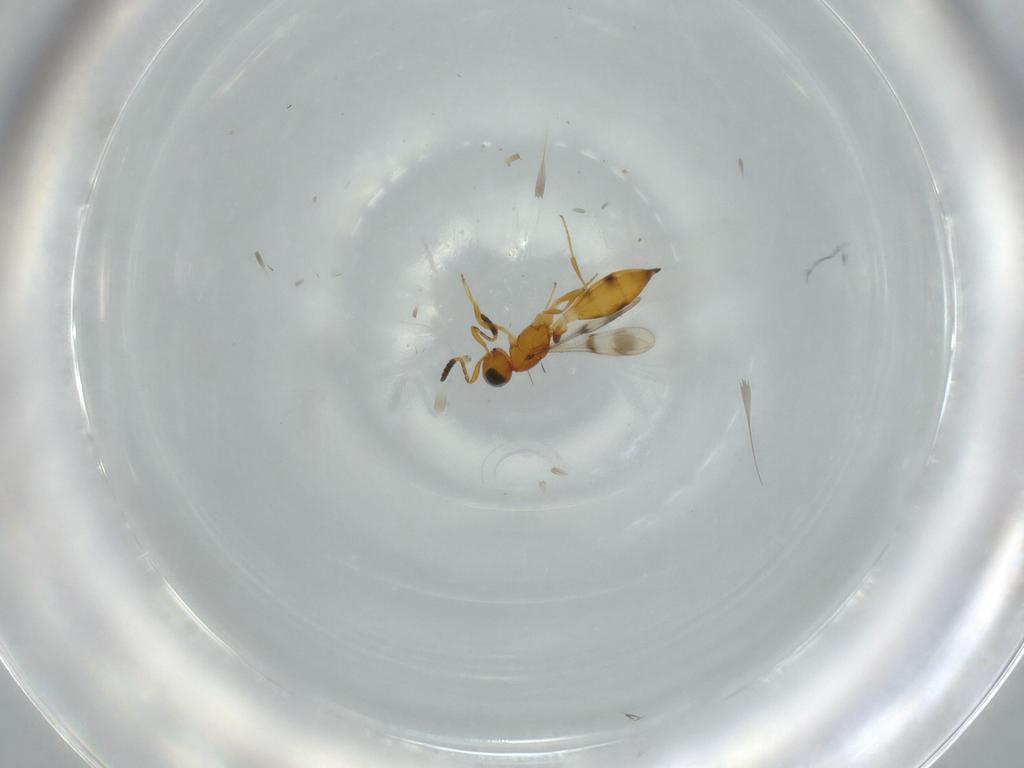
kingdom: Animalia
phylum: Arthropoda
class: Insecta
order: Hymenoptera
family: Scelionidae
